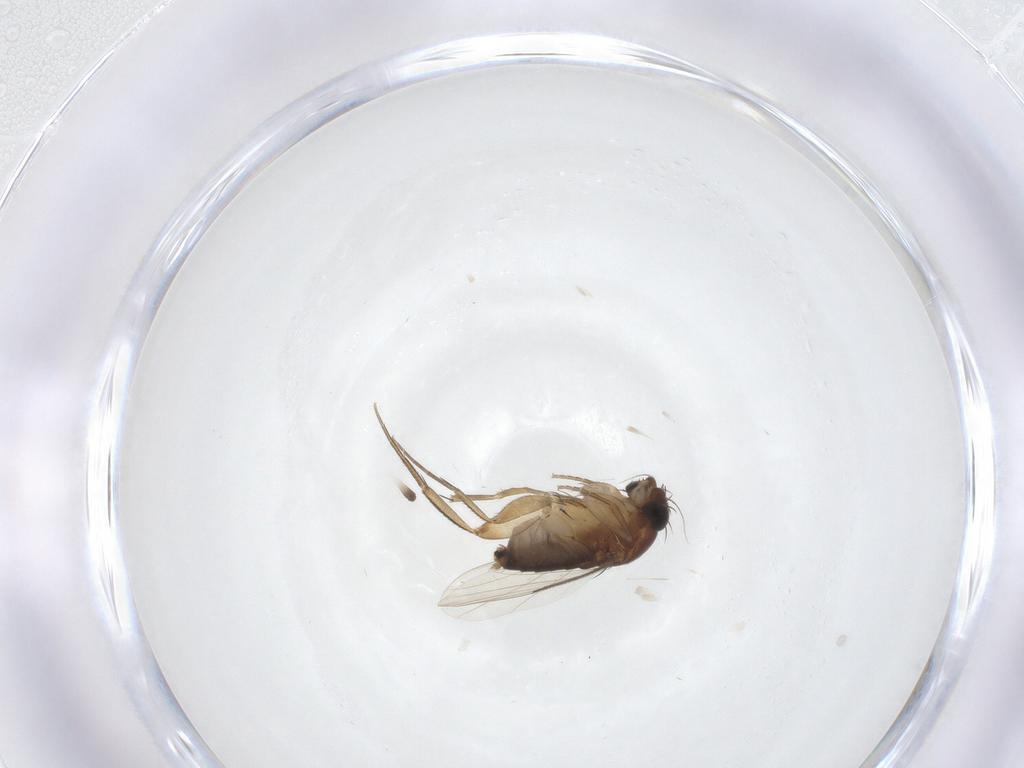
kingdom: Animalia
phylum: Arthropoda
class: Insecta
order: Diptera
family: Phoridae
